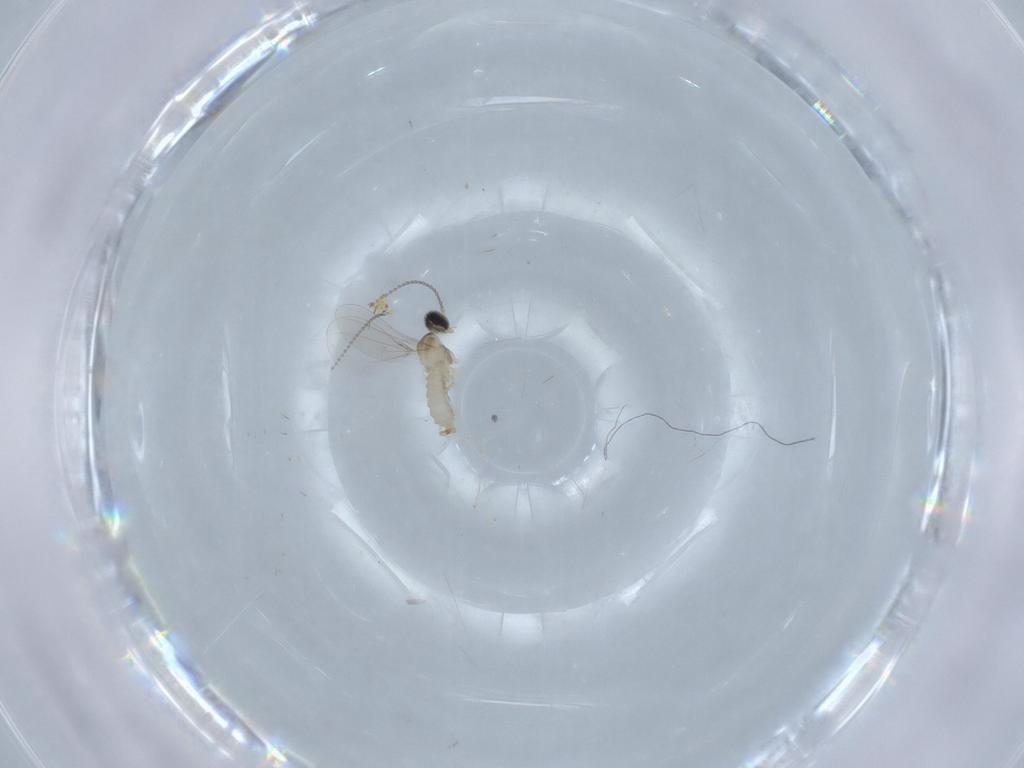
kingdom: Animalia
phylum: Arthropoda
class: Insecta
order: Diptera
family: Cecidomyiidae
